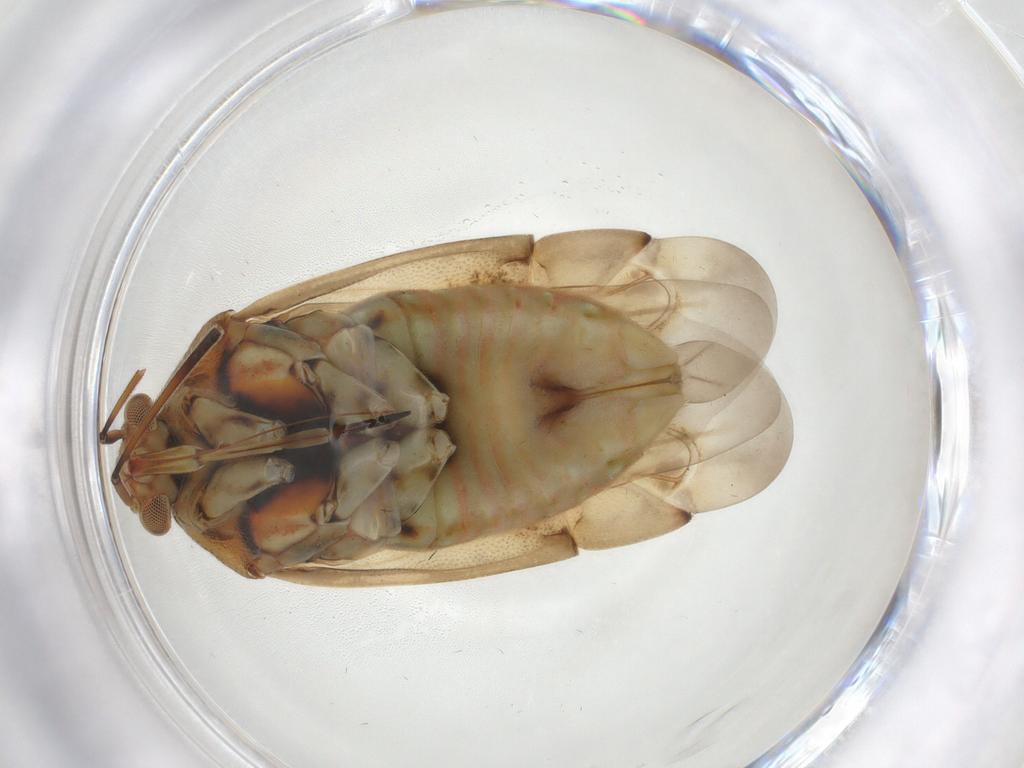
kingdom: Animalia
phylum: Arthropoda
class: Insecta
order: Hemiptera
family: Miridae
